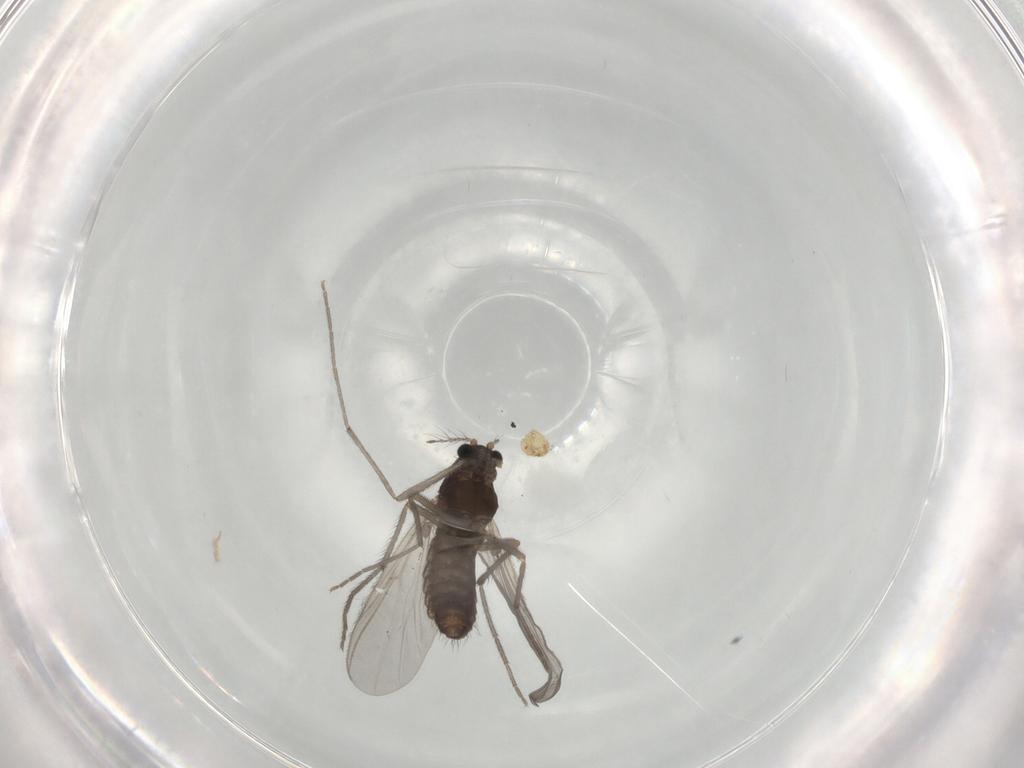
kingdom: Animalia
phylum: Arthropoda
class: Insecta
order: Diptera
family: Chironomidae
